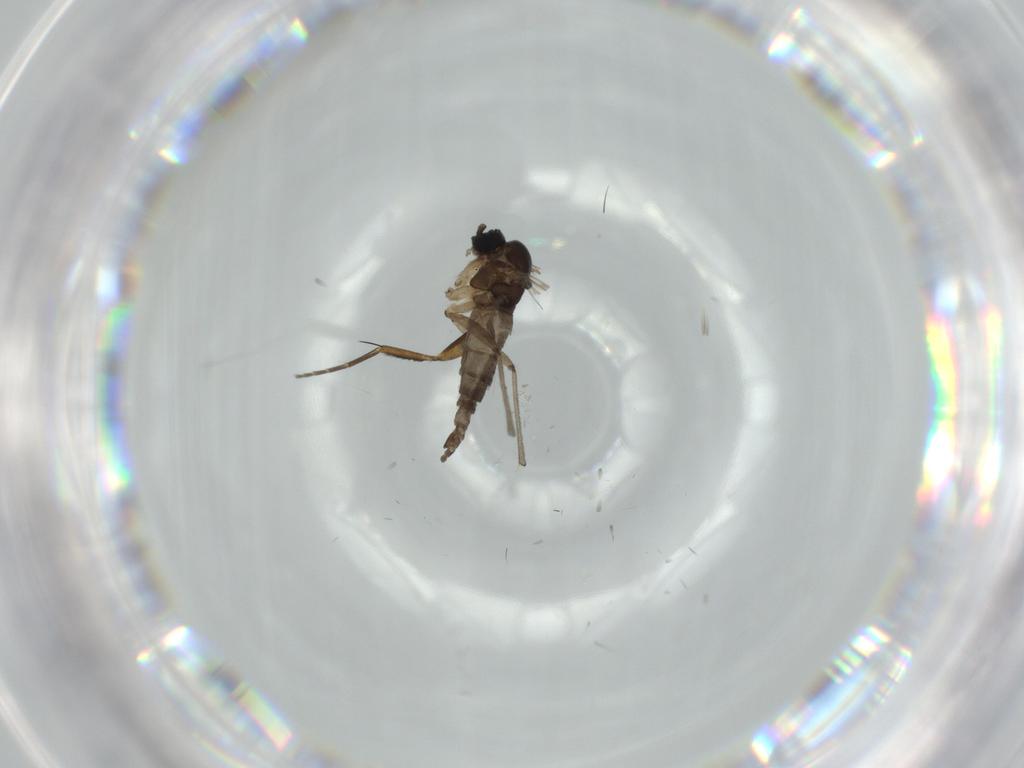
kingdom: Animalia
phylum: Arthropoda
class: Insecta
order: Diptera
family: Sciaridae
